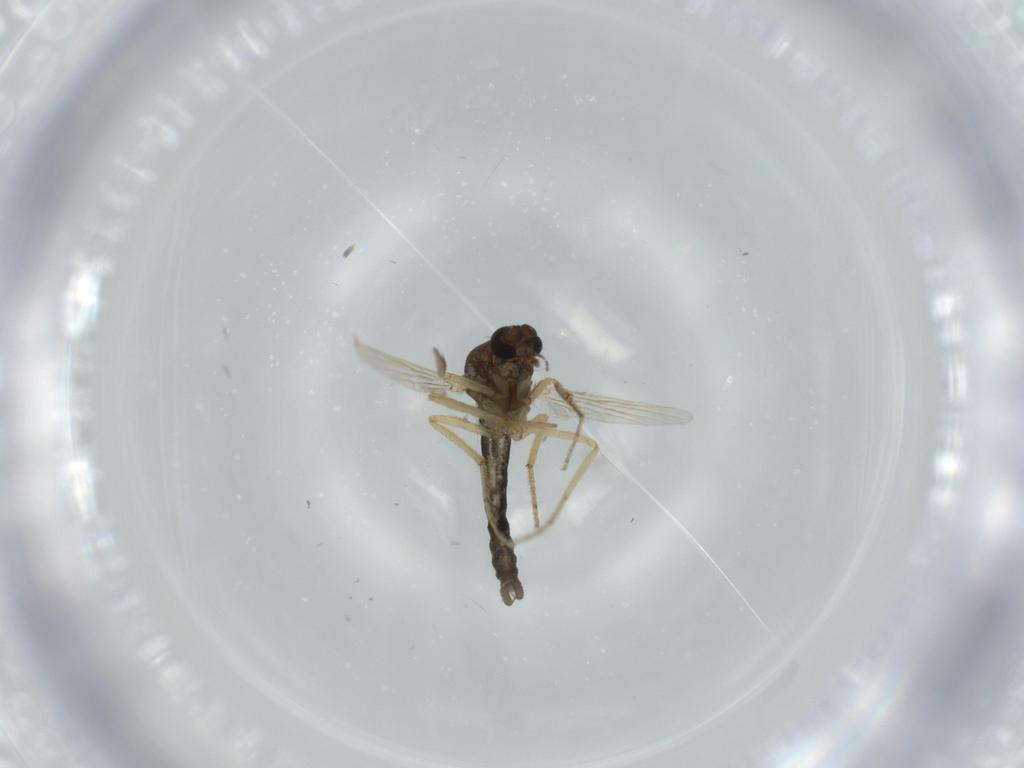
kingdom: Animalia
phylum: Arthropoda
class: Insecta
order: Diptera
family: Ceratopogonidae
